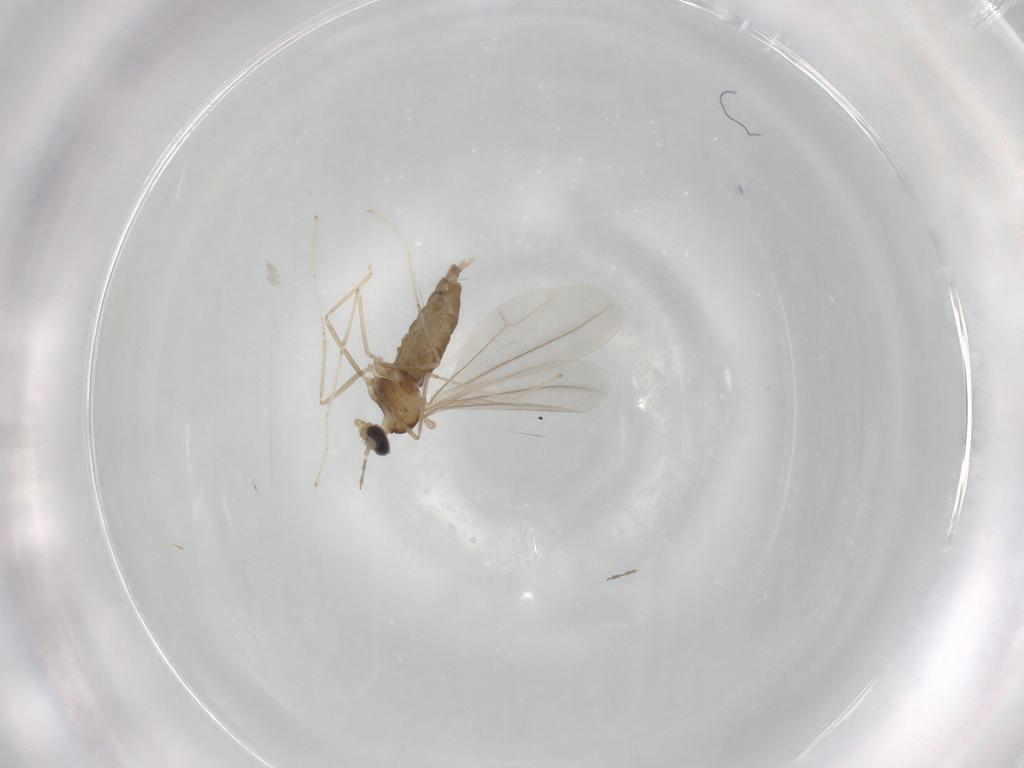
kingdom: Animalia
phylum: Arthropoda
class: Insecta
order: Diptera
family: Cecidomyiidae
